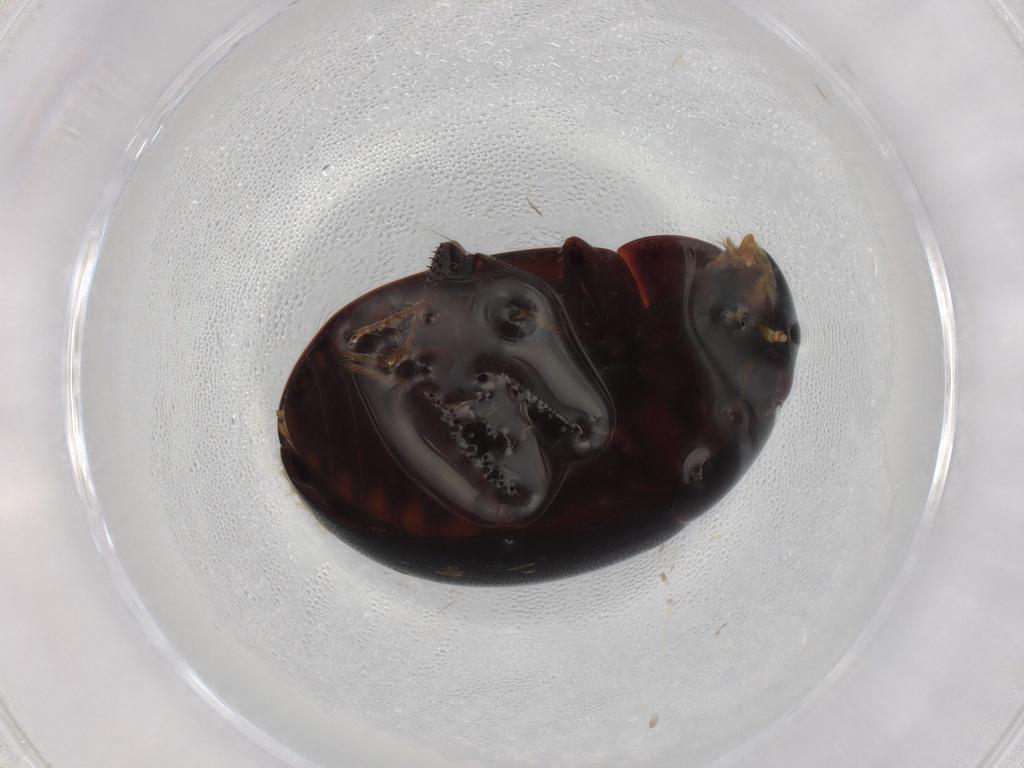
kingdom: Animalia
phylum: Arthropoda
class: Insecta
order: Coleoptera
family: Hydrophilidae
